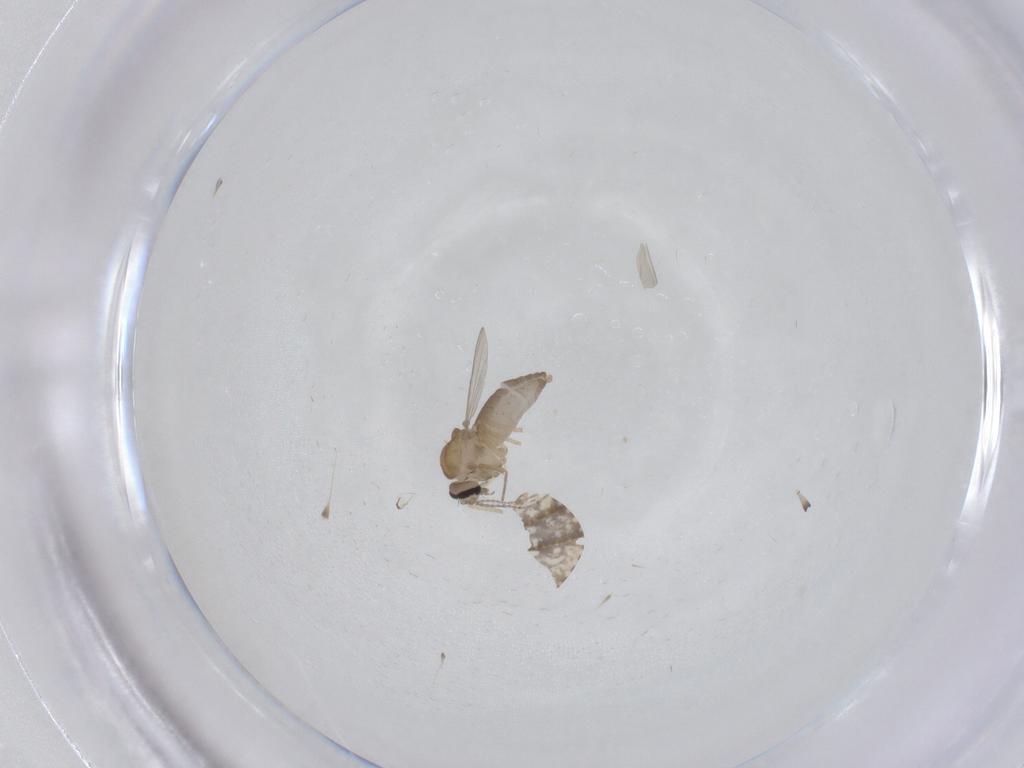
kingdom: Animalia
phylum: Arthropoda
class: Insecta
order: Diptera
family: Ceratopogonidae
